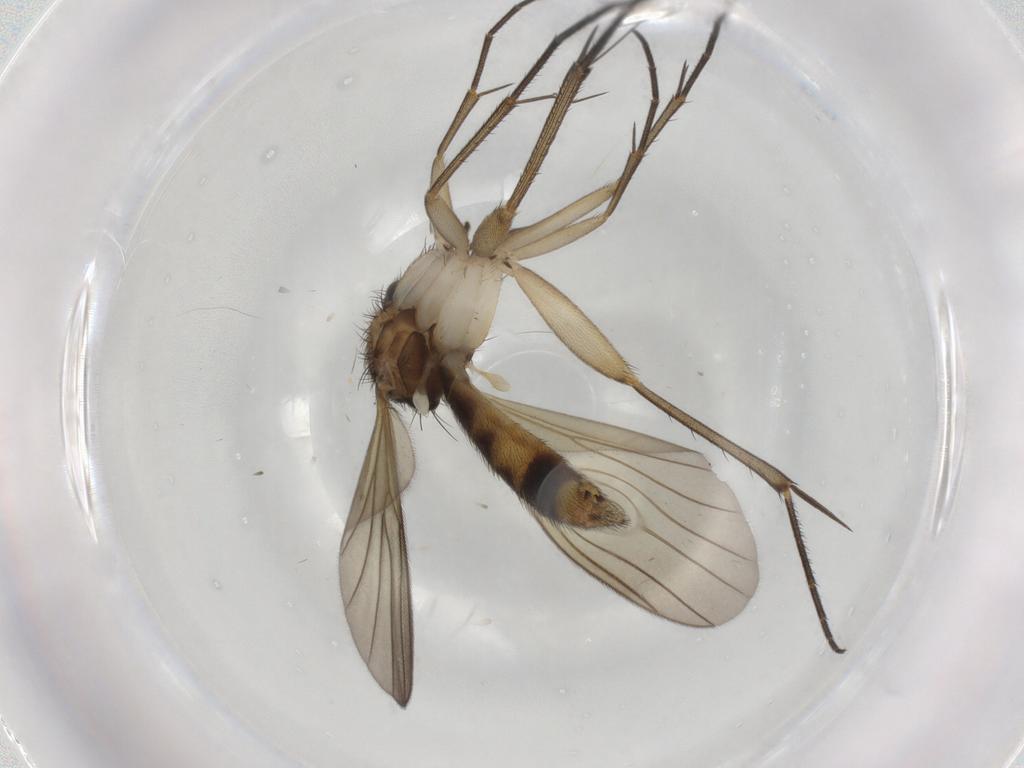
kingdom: Animalia
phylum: Arthropoda
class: Insecta
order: Diptera
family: Mycetophilidae
